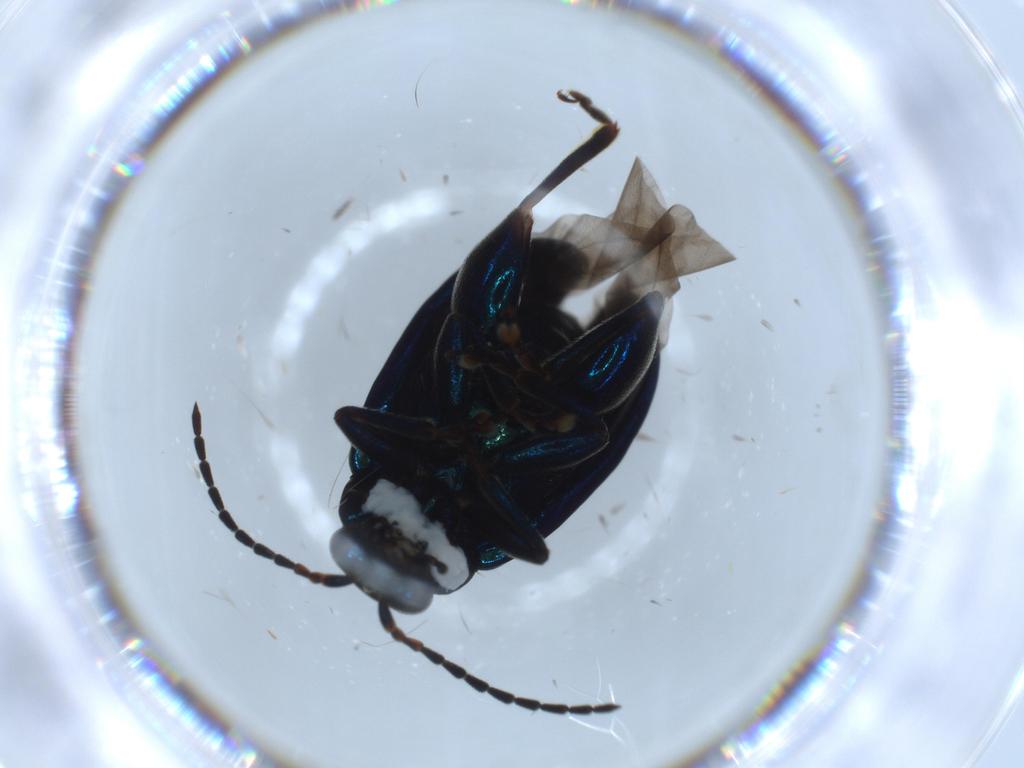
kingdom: Animalia
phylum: Arthropoda
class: Insecta
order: Coleoptera
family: Chrysomelidae
